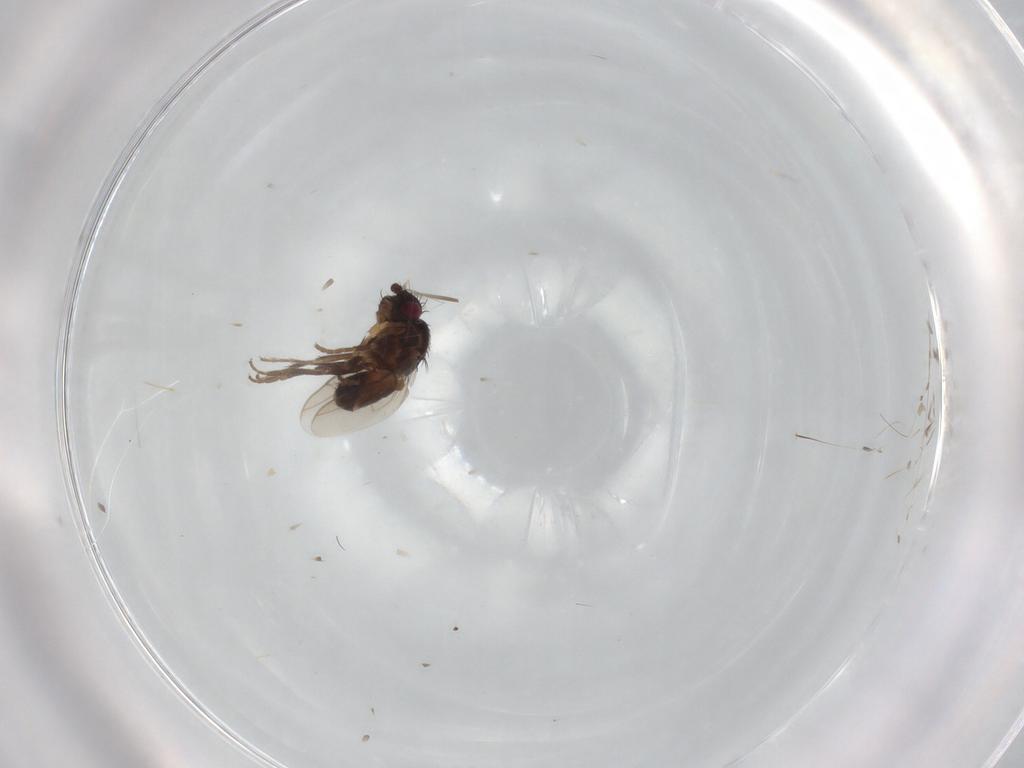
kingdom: Animalia
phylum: Arthropoda
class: Insecta
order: Diptera
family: Sphaeroceridae
